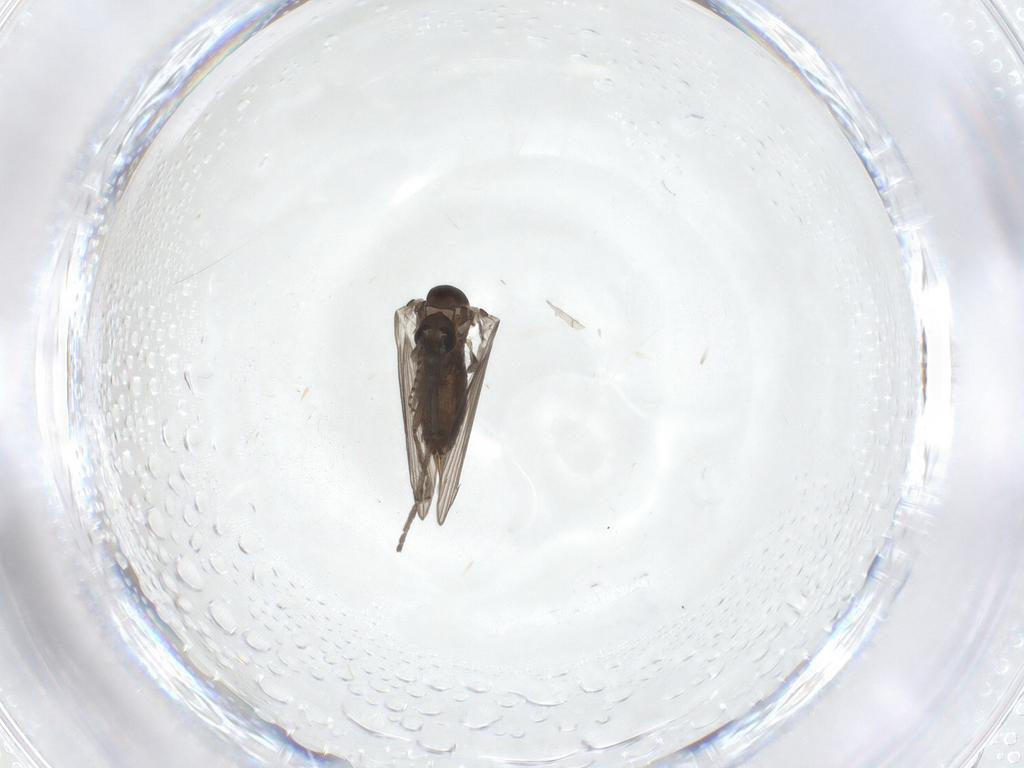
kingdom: Animalia
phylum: Arthropoda
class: Insecta
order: Diptera
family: Psychodidae
